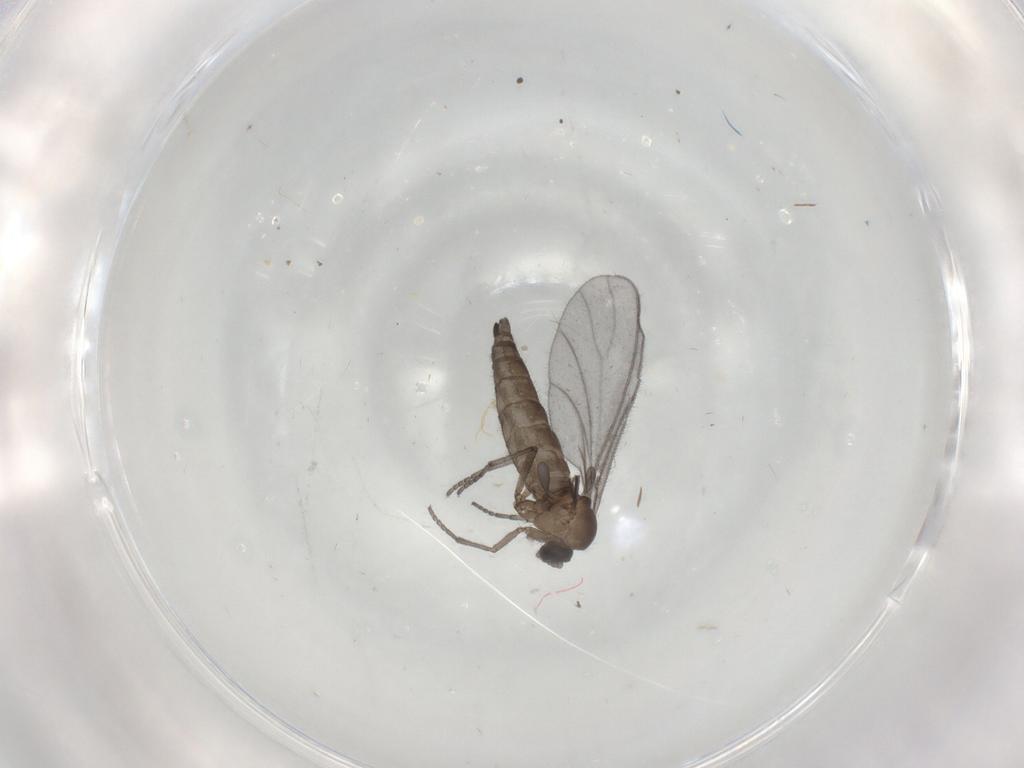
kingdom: Animalia
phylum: Arthropoda
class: Insecta
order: Diptera
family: Sciaridae
